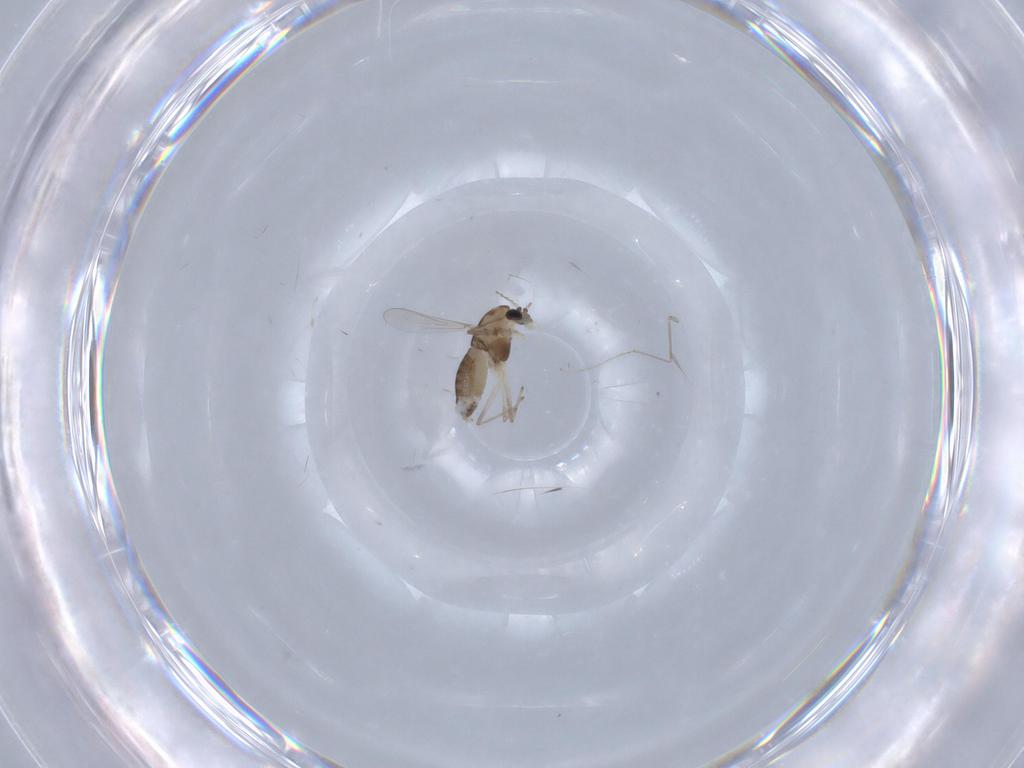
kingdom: Animalia
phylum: Arthropoda
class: Insecta
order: Diptera
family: Chironomidae
